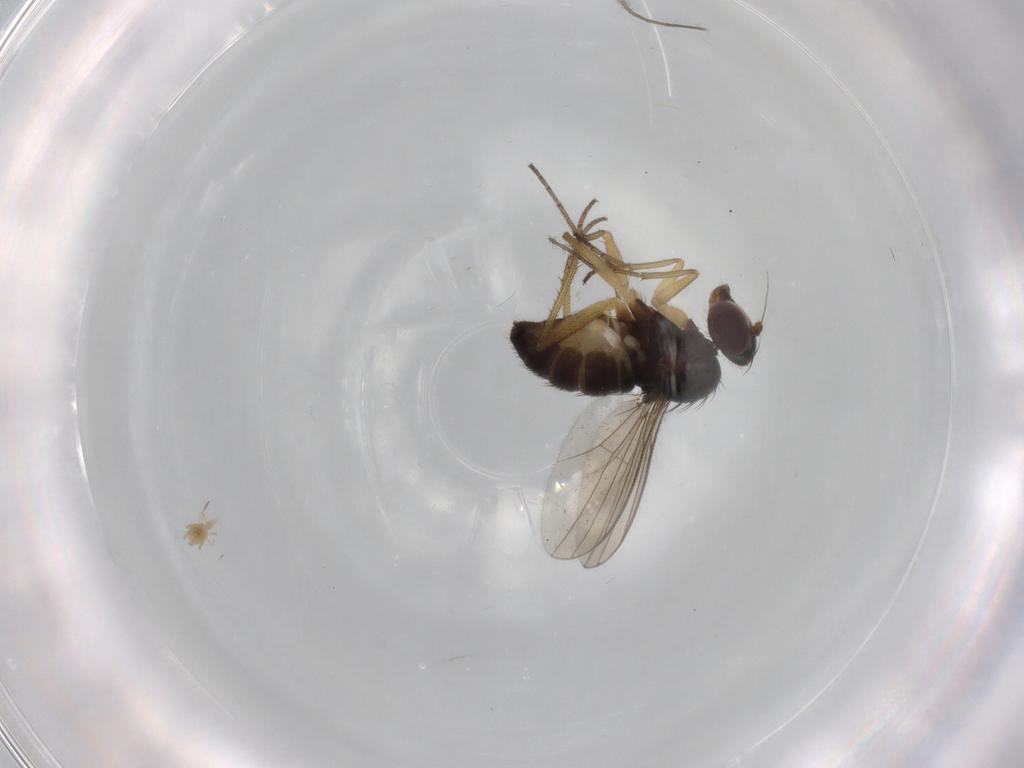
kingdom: Animalia
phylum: Arthropoda
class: Insecta
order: Diptera
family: Dolichopodidae
